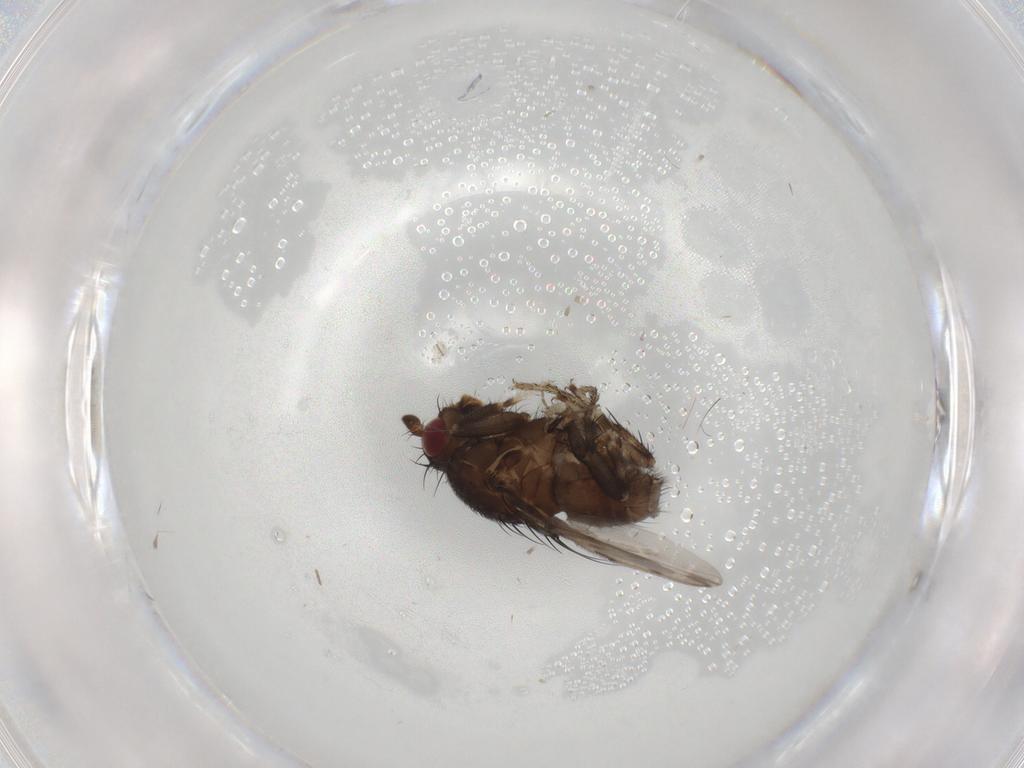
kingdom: Animalia
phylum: Arthropoda
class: Insecta
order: Diptera
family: Sphaeroceridae
